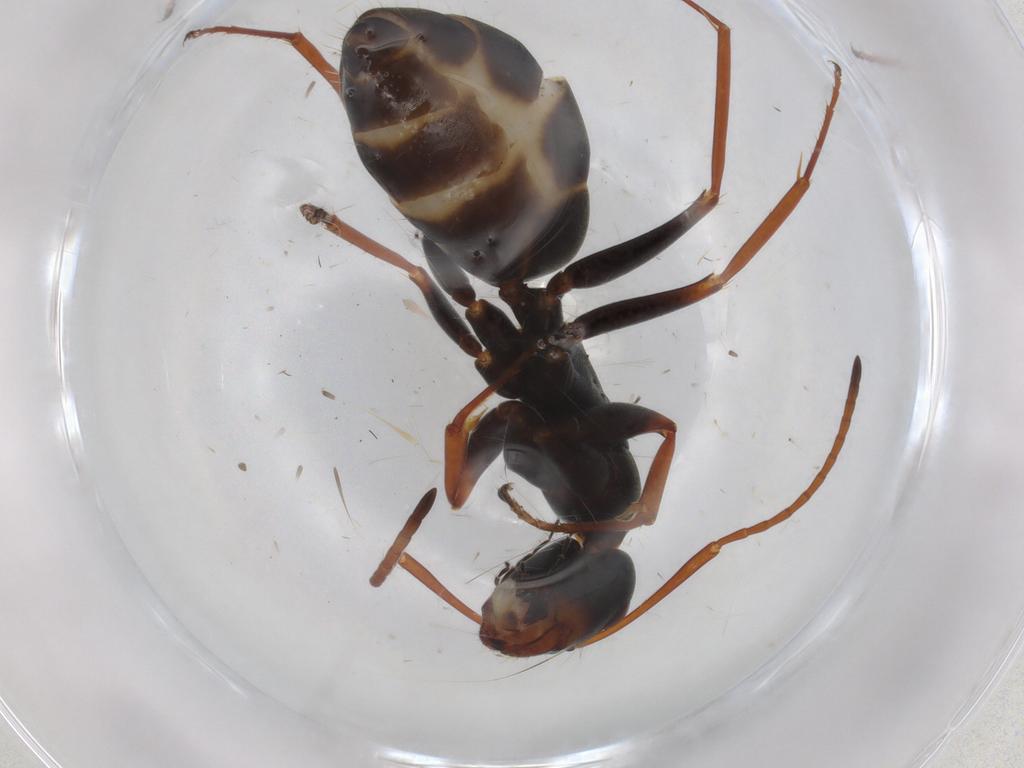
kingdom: Animalia
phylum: Arthropoda
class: Insecta
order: Hymenoptera
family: Formicidae
